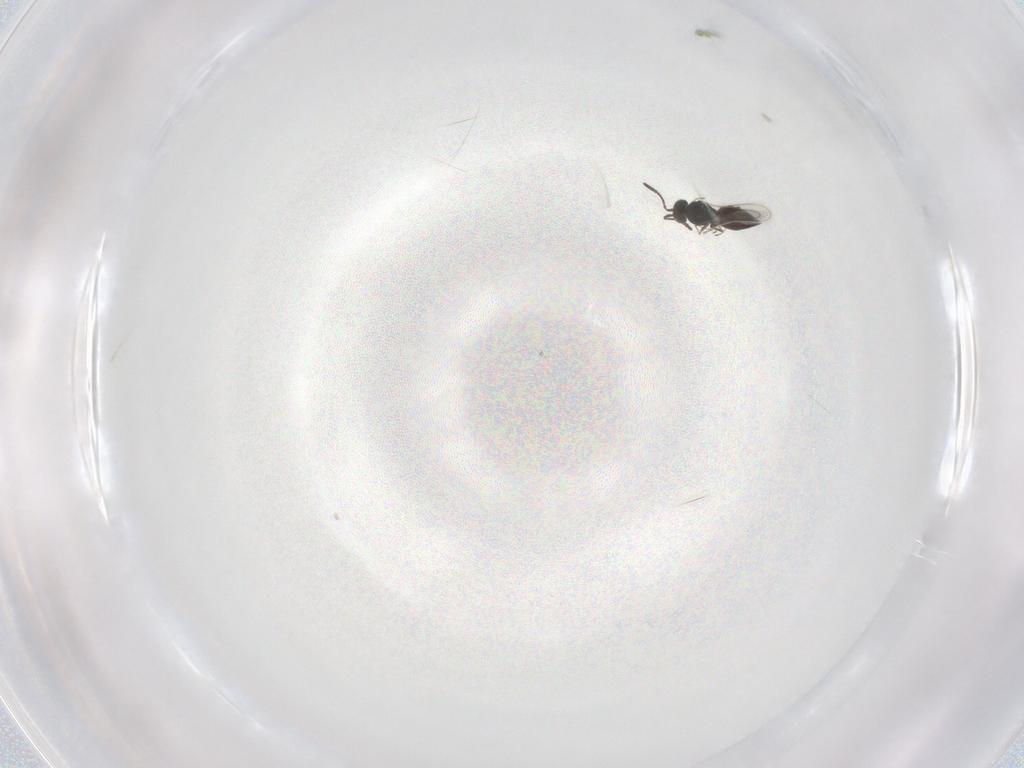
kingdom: Animalia
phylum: Arthropoda
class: Insecta
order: Hymenoptera
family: Scelionidae
